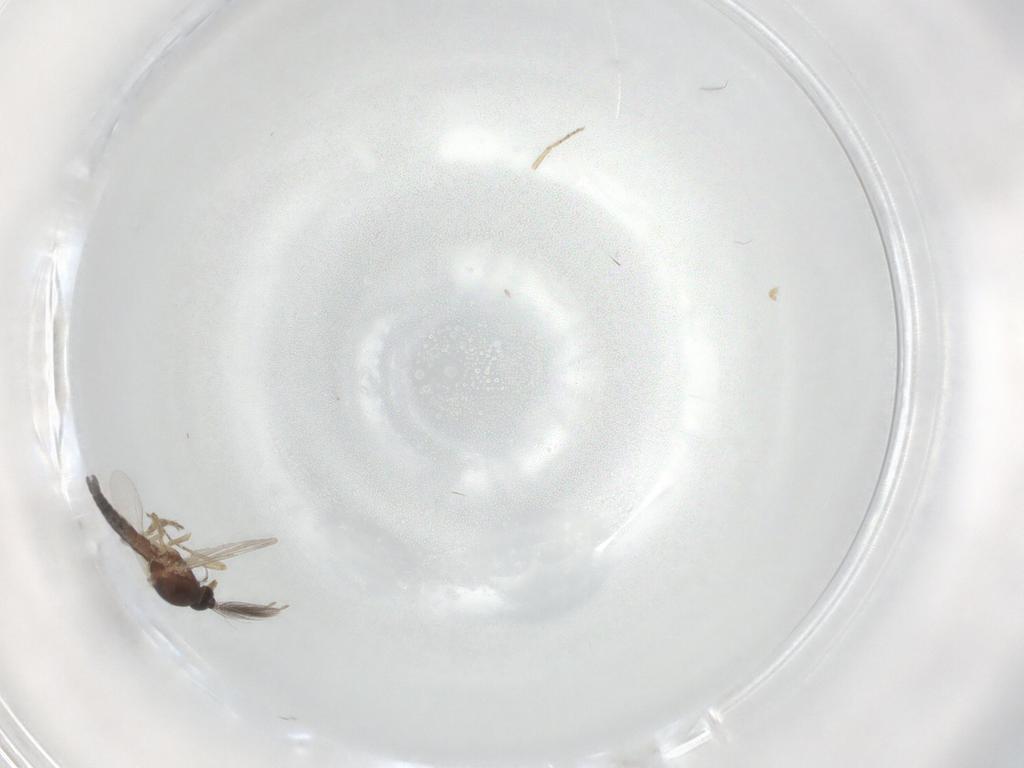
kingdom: Animalia
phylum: Arthropoda
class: Insecta
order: Diptera
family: Ceratopogonidae
